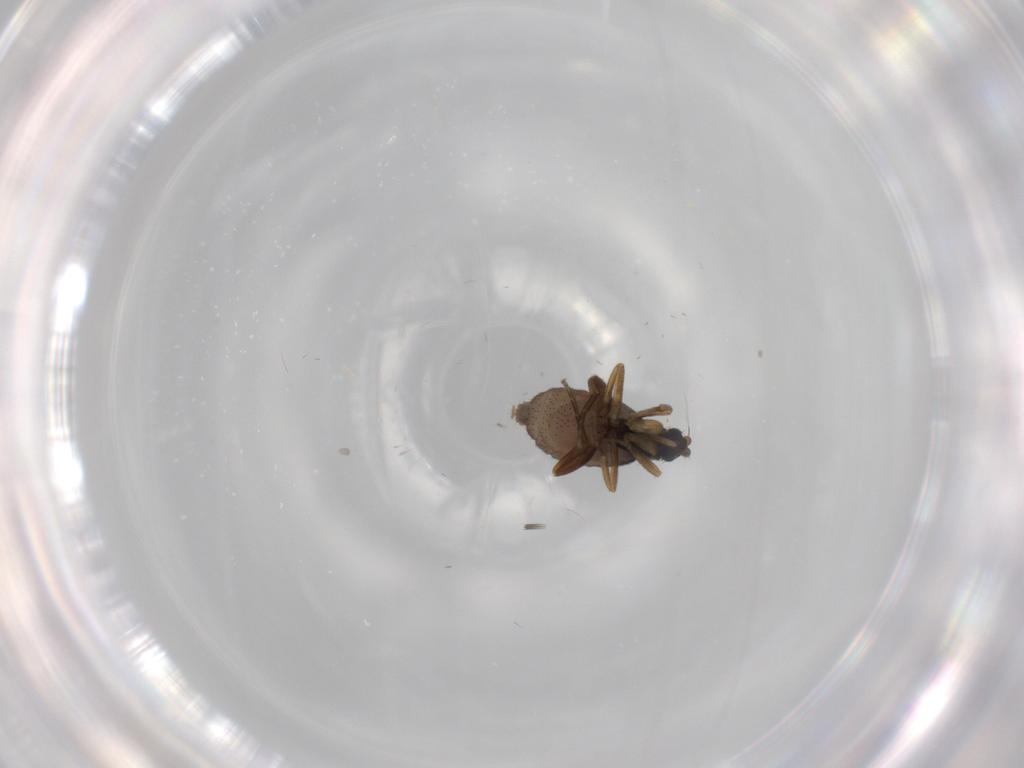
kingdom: Animalia
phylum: Arthropoda
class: Insecta
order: Diptera
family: Phoridae
